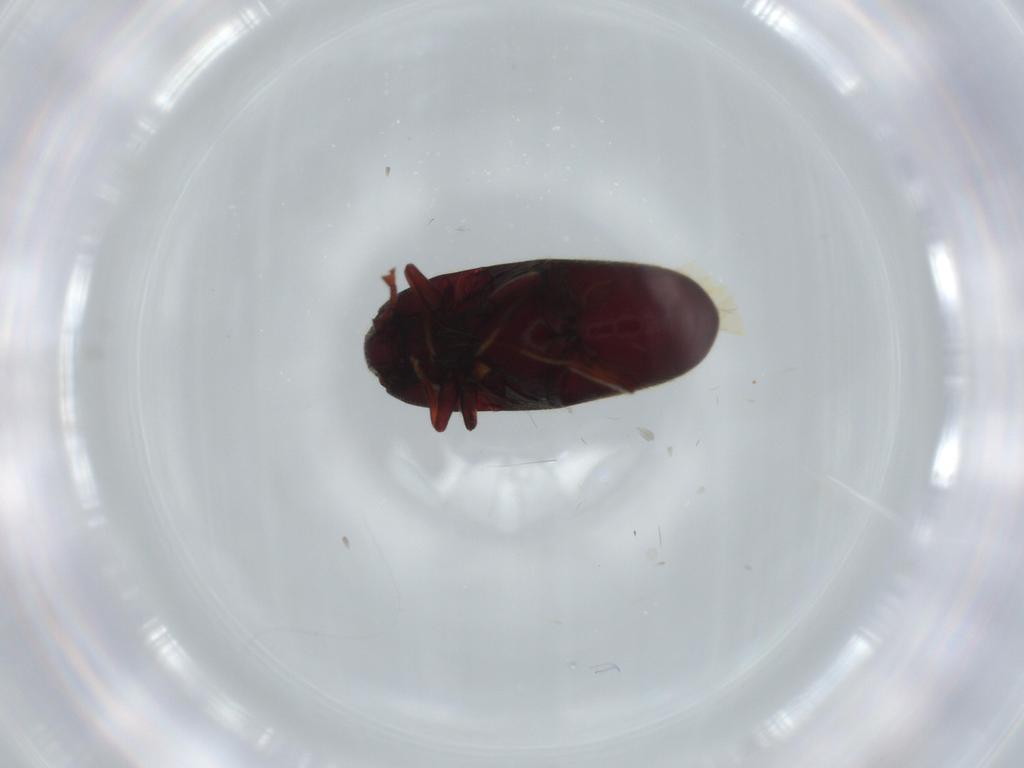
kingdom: Animalia
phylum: Arthropoda
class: Insecta
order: Coleoptera
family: Throscidae
